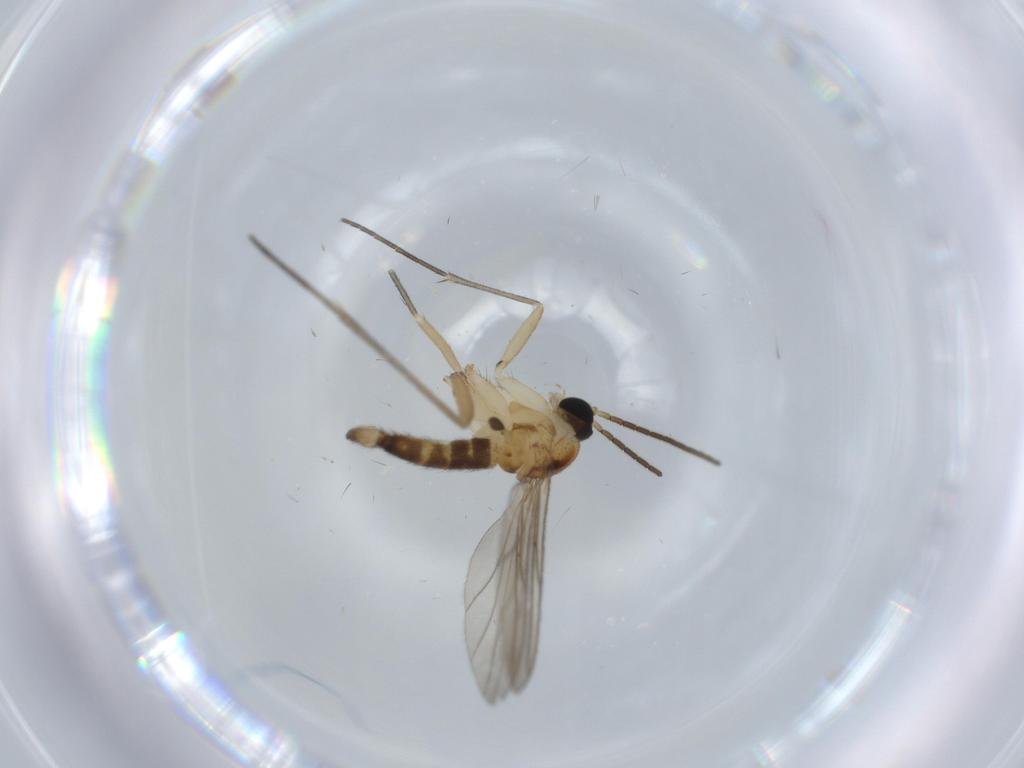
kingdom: Animalia
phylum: Arthropoda
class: Insecta
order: Diptera
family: Sciaridae
